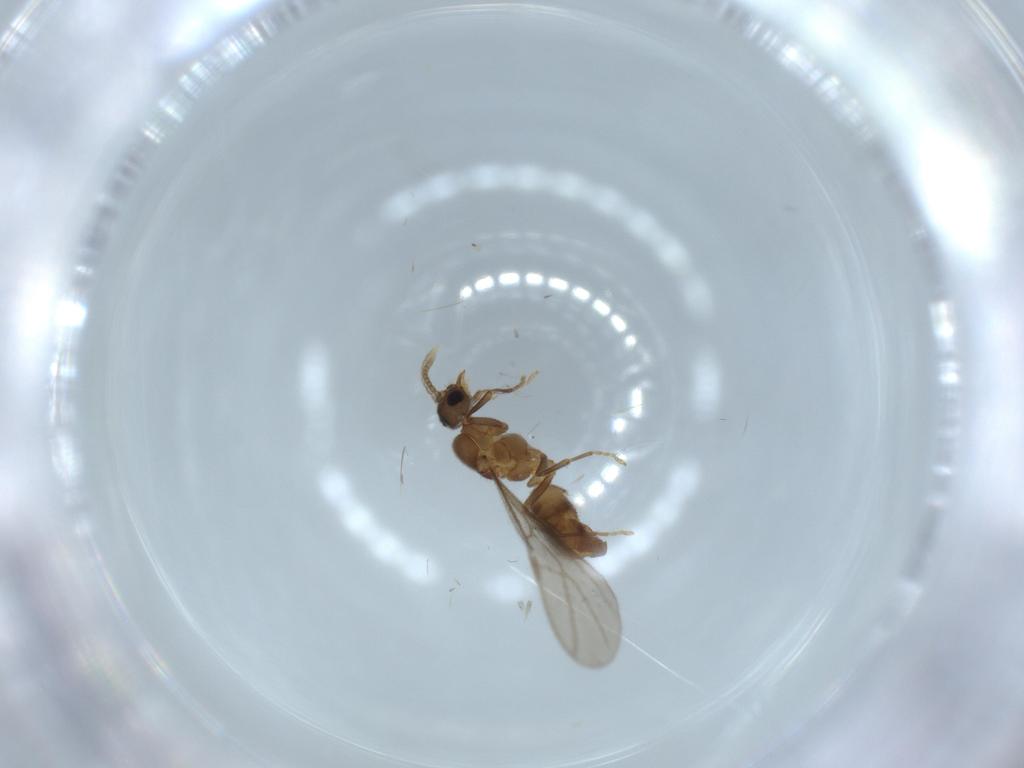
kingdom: Animalia
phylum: Arthropoda
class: Insecta
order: Hymenoptera
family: Formicidae
